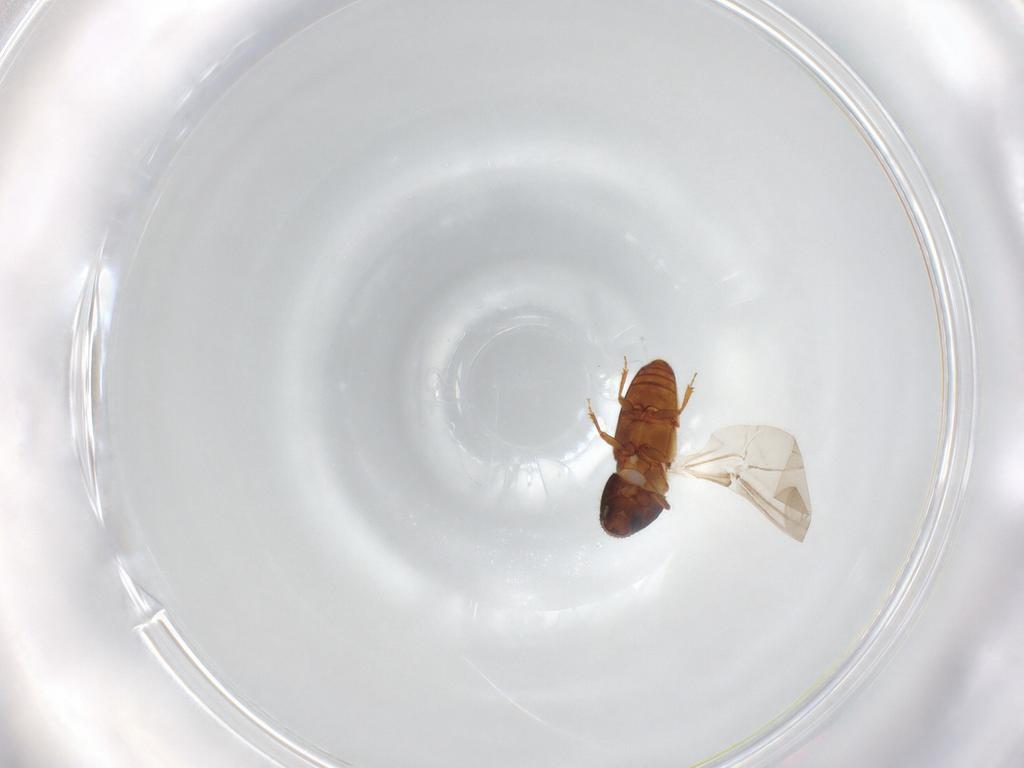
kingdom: Animalia
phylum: Arthropoda
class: Insecta
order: Coleoptera
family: Curculionidae
